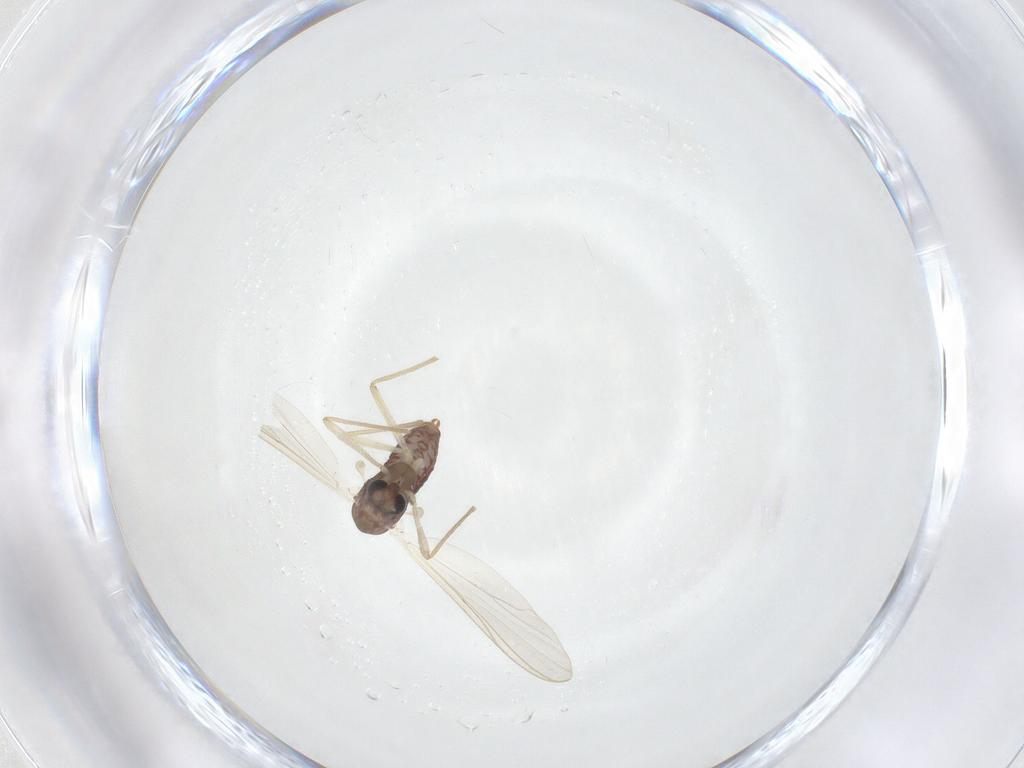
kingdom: Animalia
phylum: Arthropoda
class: Insecta
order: Diptera
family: Chironomidae
